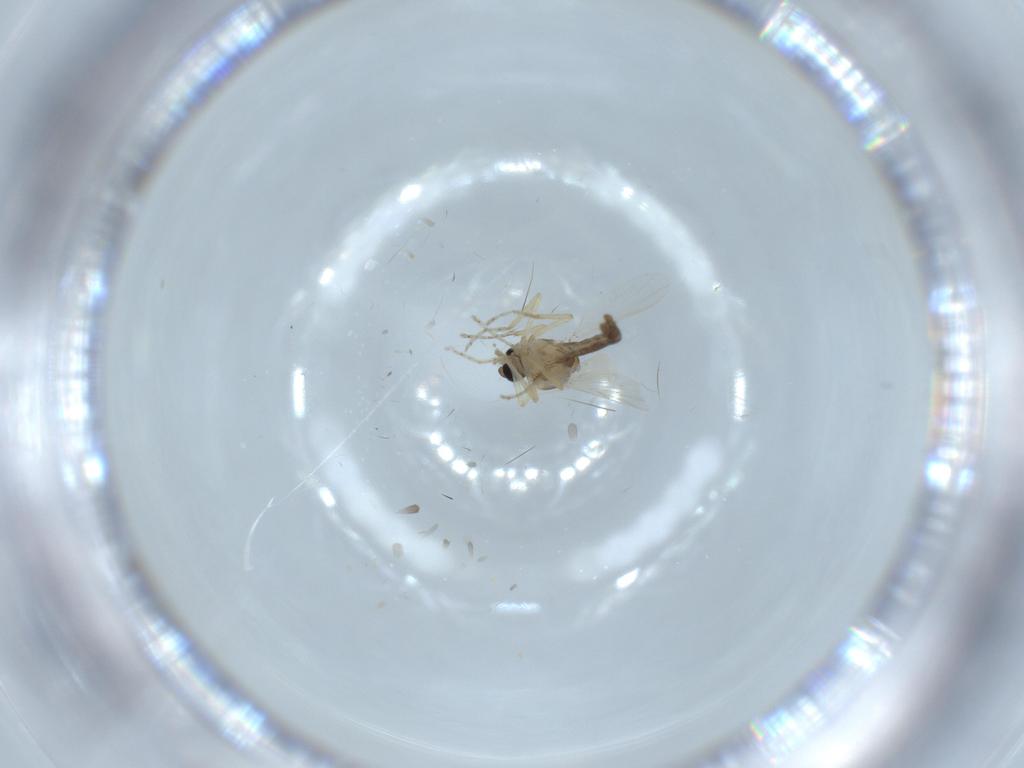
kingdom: Animalia
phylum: Arthropoda
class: Insecta
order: Diptera
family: Ceratopogonidae
